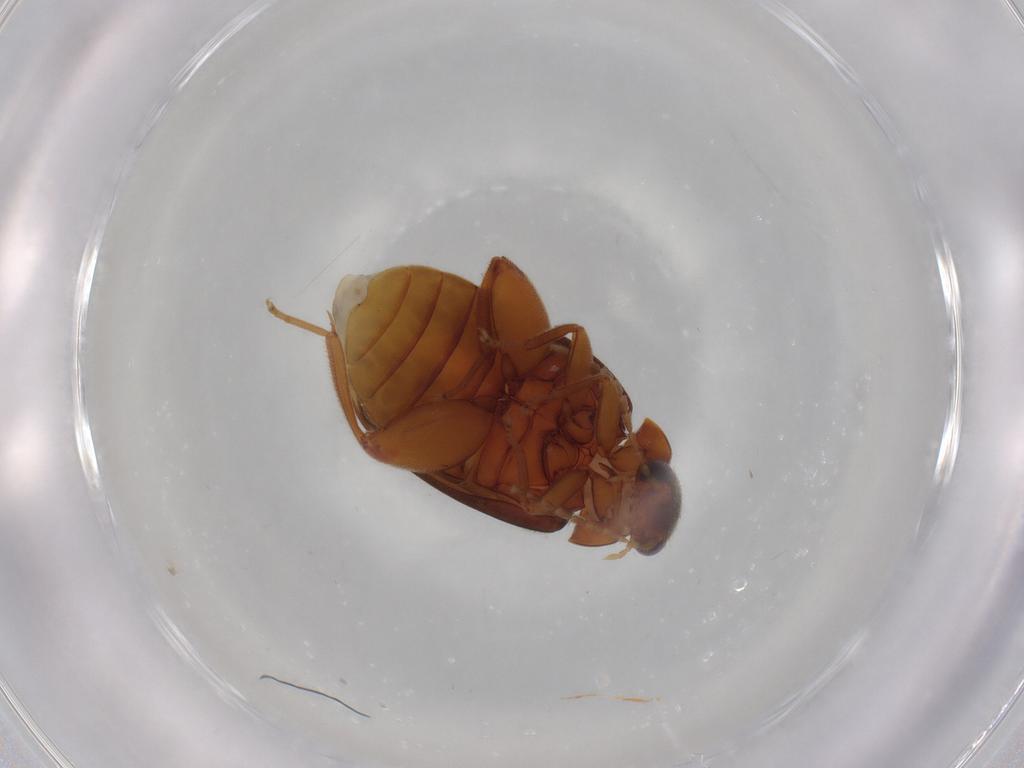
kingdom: Animalia
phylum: Arthropoda
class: Insecta
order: Coleoptera
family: Scirtidae
